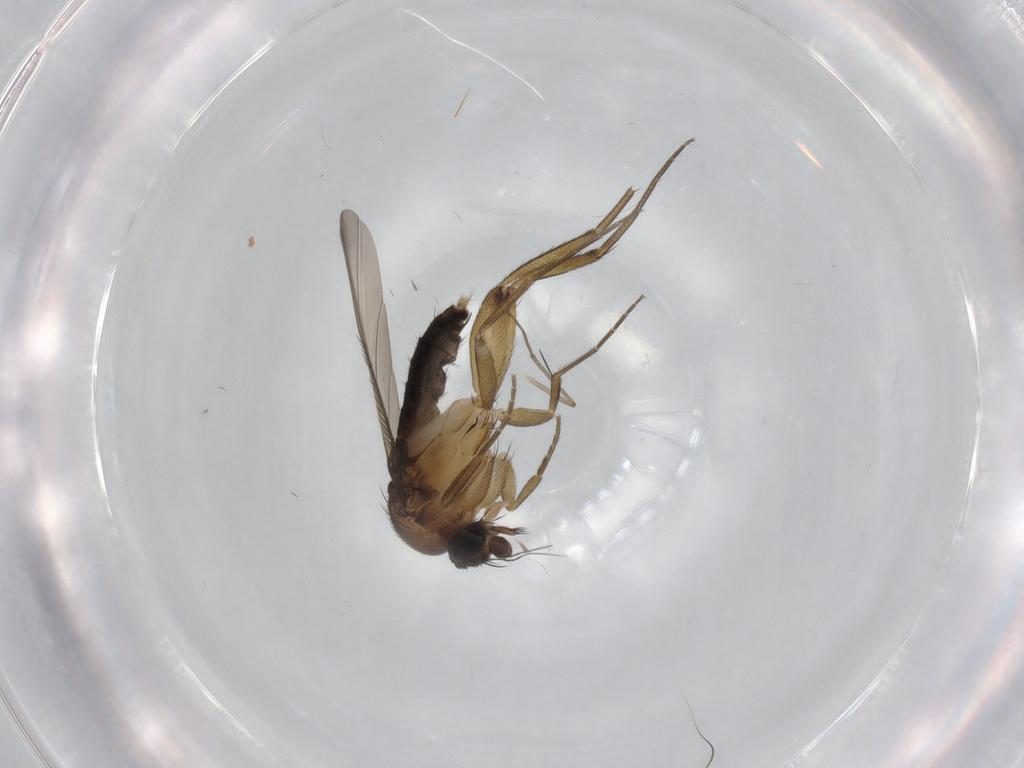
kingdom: Animalia
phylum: Arthropoda
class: Insecta
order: Diptera
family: Phoridae
